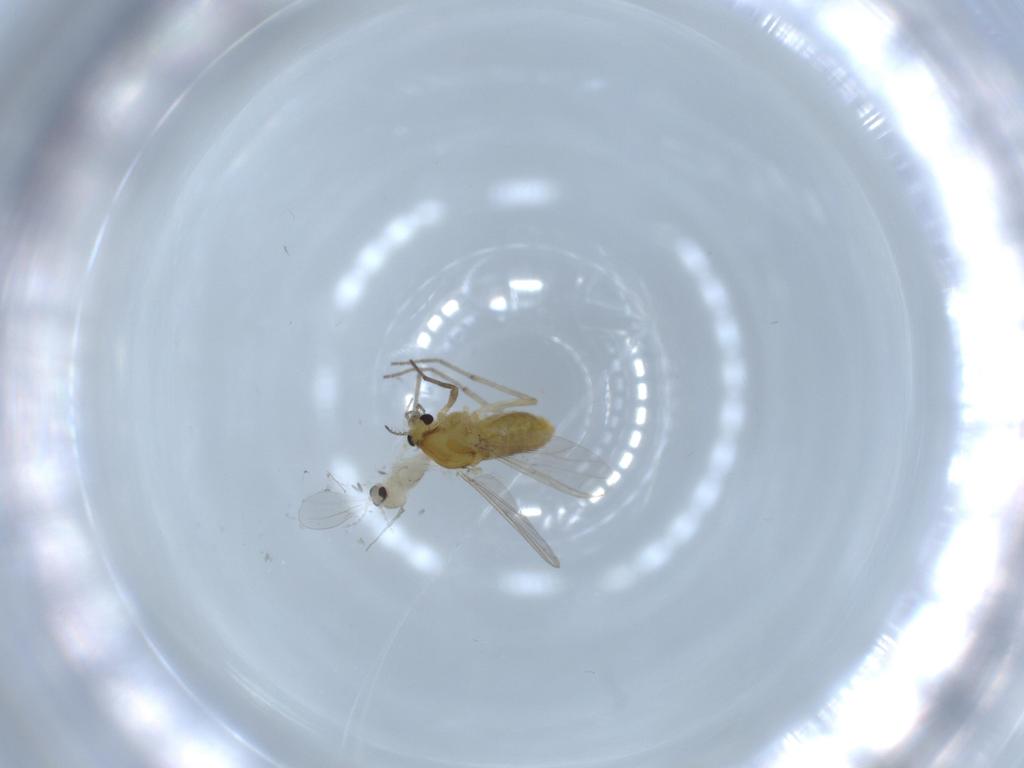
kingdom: Animalia
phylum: Arthropoda
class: Insecta
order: Diptera
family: Chironomidae
